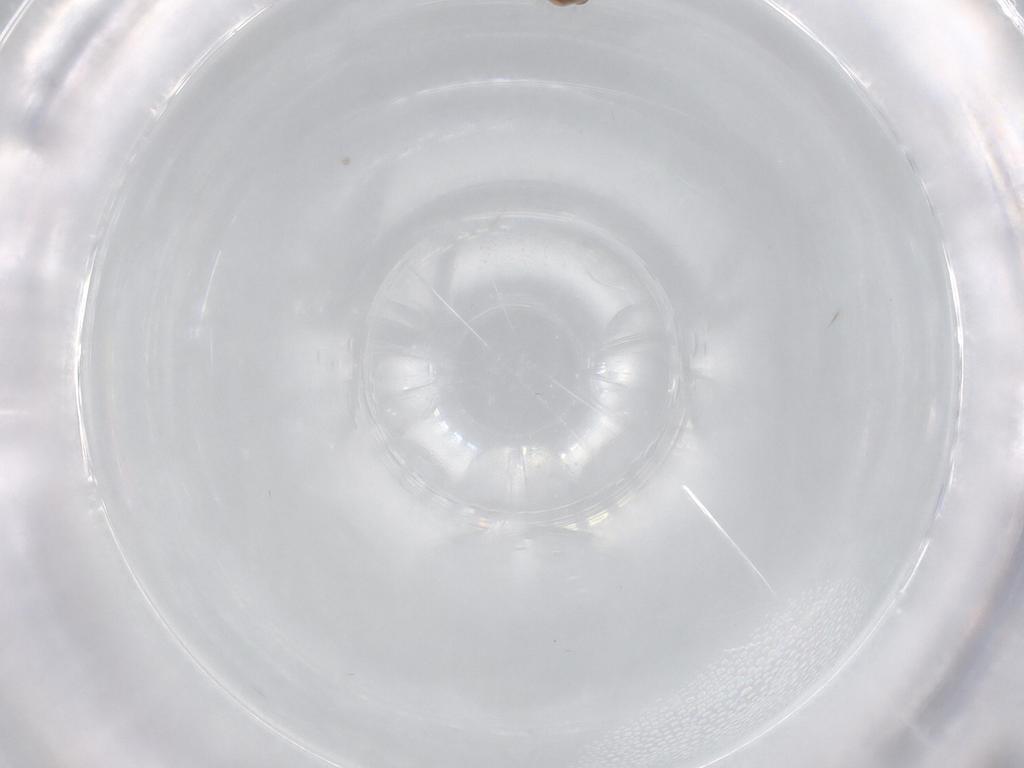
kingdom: Animalia
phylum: Arthropoda
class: Insecta
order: Diptera
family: Ceratopogonidae
